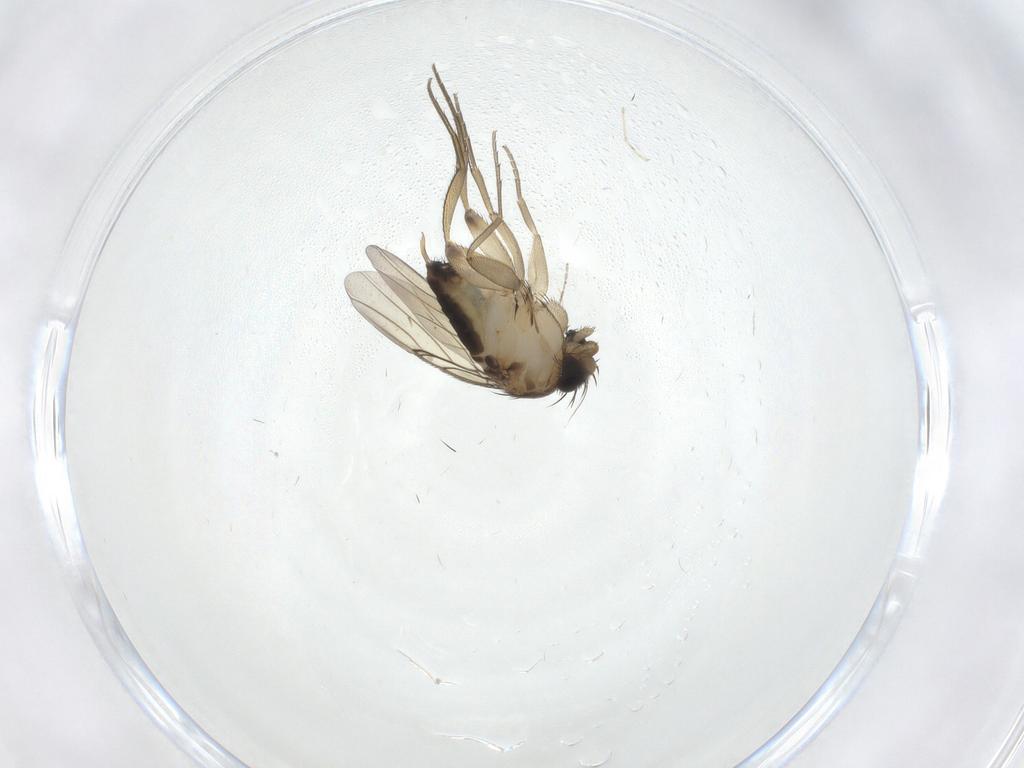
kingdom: Animalia
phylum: Arthropoda
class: Insecta
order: Diptera
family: Phoridae
